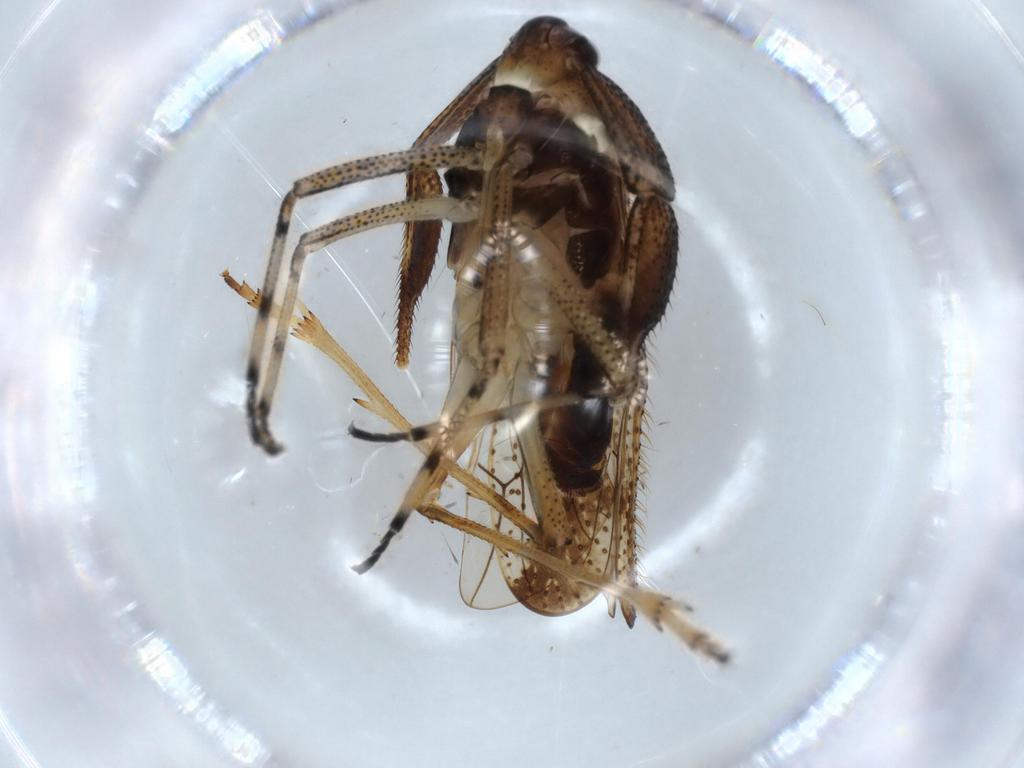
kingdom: Animalia
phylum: Arthropoda
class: Insecta
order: Hemiptera
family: Delphacidae
